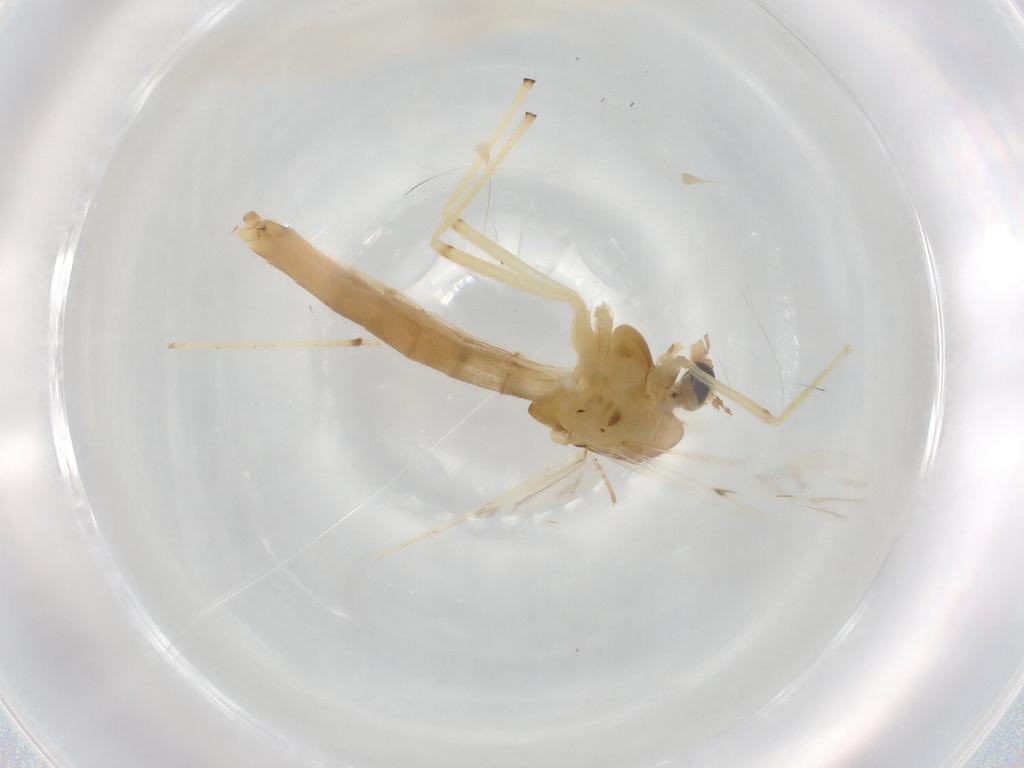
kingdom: Animalia
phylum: Arthropoda
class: Insecta
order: Diptera
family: Chironomidae
